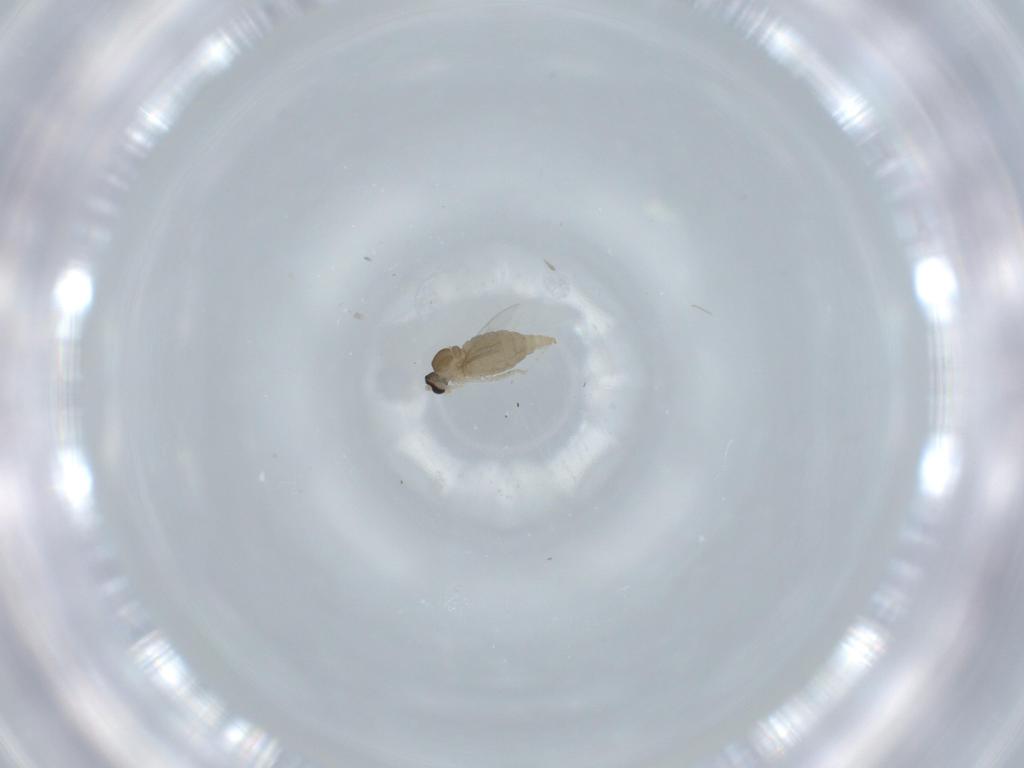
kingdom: Animalia
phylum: Arthropoda
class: Insecta
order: Diptera
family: Cecidomyiidae
